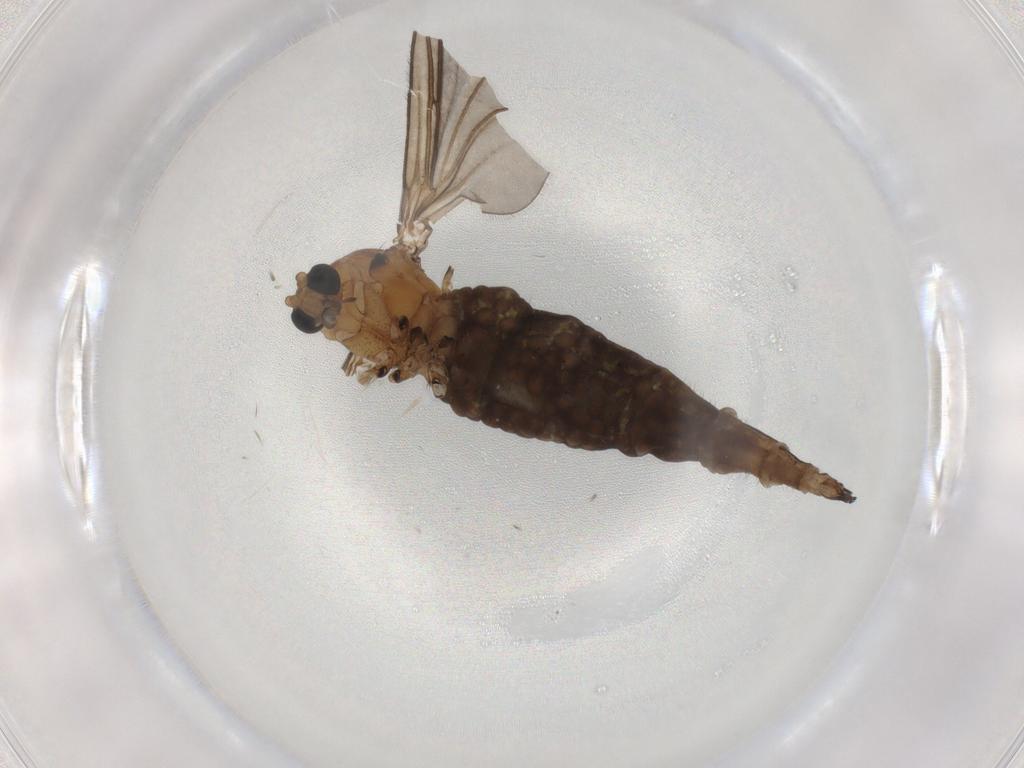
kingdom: Animalia
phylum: Arthropoda
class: Insecta
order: Diptera
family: Sciaridae
